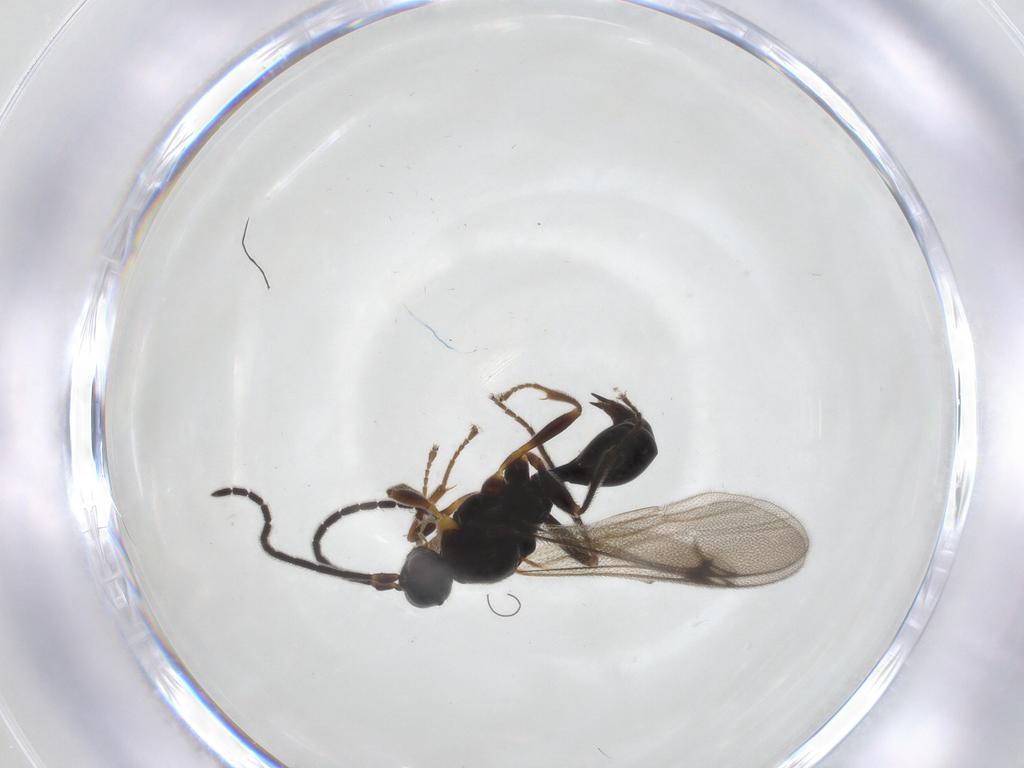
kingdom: Animalia
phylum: Arthropoda
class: Insecta
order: Hymenoptera
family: Proctotrupidae
